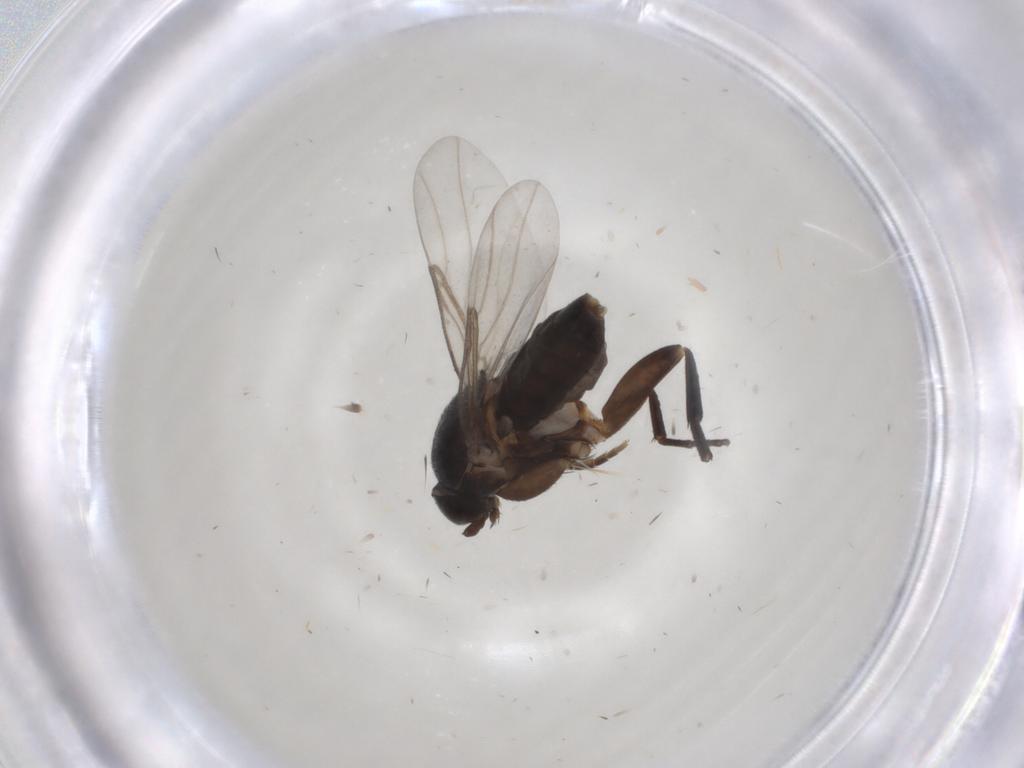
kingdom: Animalia
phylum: Arthropoda
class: Insecta
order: Diptera
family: Phoridae
